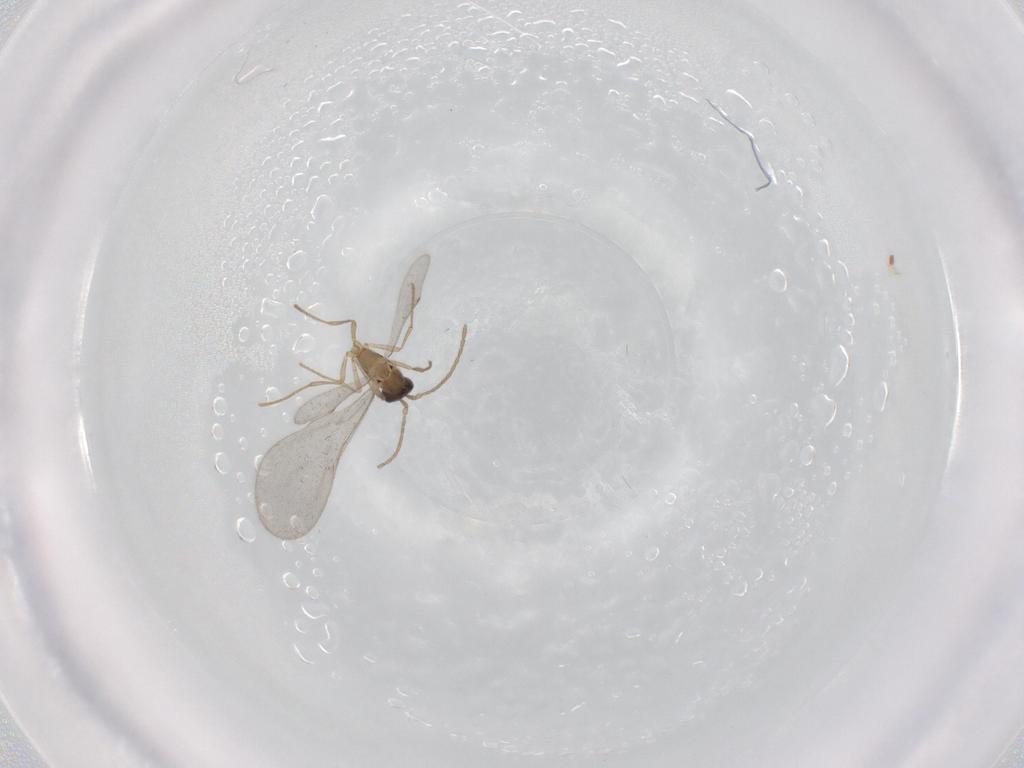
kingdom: Animalia
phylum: Arthropoda
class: Insecta
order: Hymenoptera
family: Formicidae
